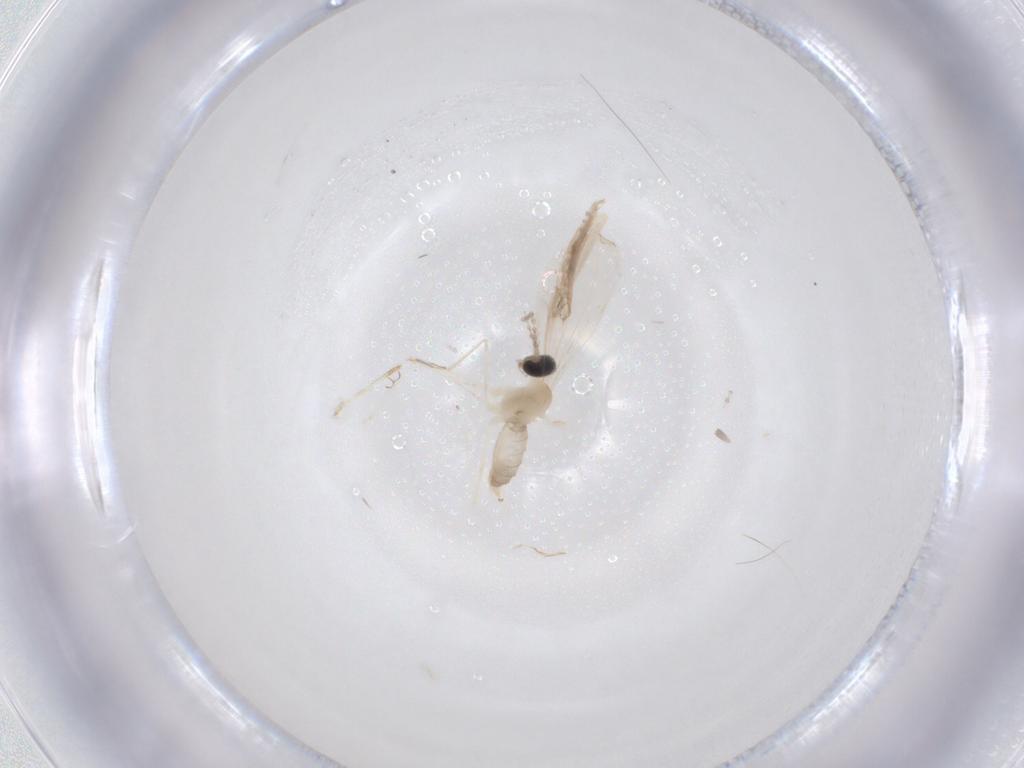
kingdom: Animalia
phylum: Arthropoda
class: Insecta
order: Diptera
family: Cecidomyiidae
